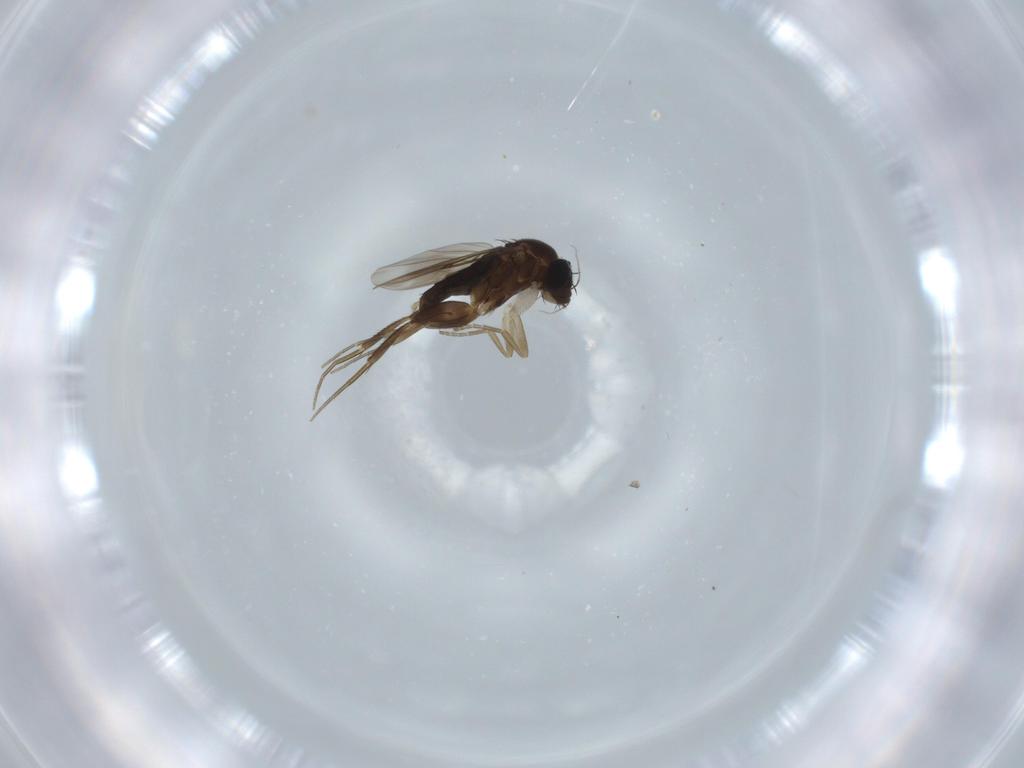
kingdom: Animalia
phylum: Arthropoda
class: Insecta
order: Diptera
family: Phoridae
